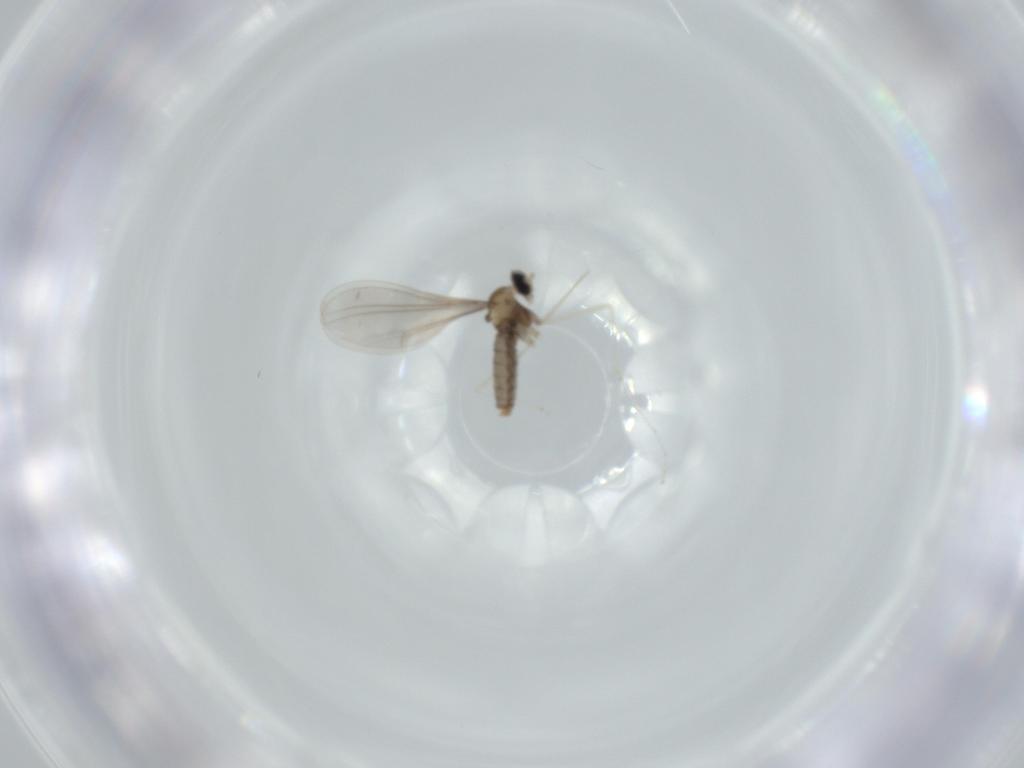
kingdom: Animalia
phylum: Arthropoda
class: Insecta
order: Diptera
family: Cecidomyiidae
